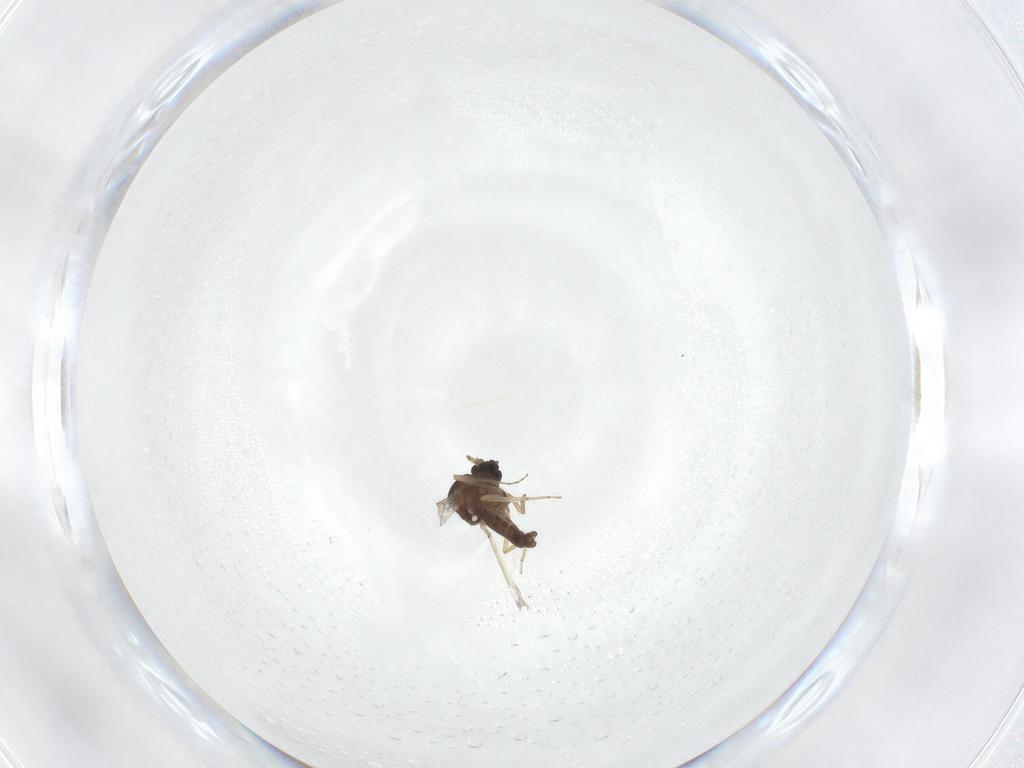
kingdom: Animalia
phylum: Arthropoda
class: Insecta
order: Diptera
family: Ceratopogonidae
